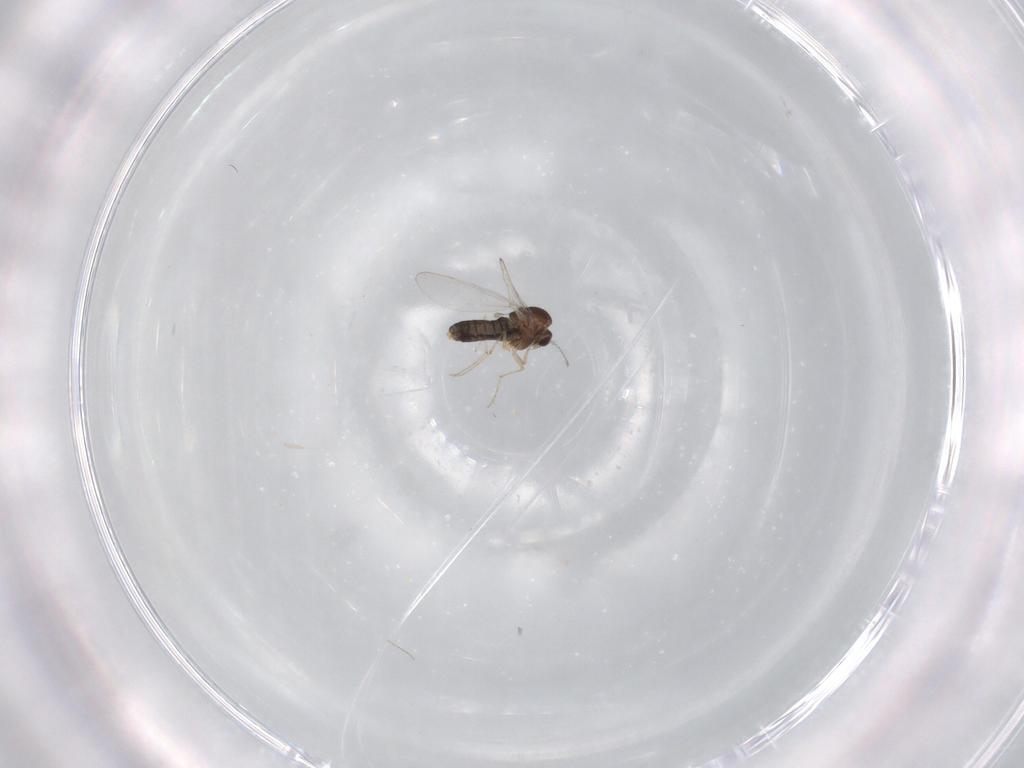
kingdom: Animalia
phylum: Arthropoda
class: Insecta
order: Diptera
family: Chironomidae
